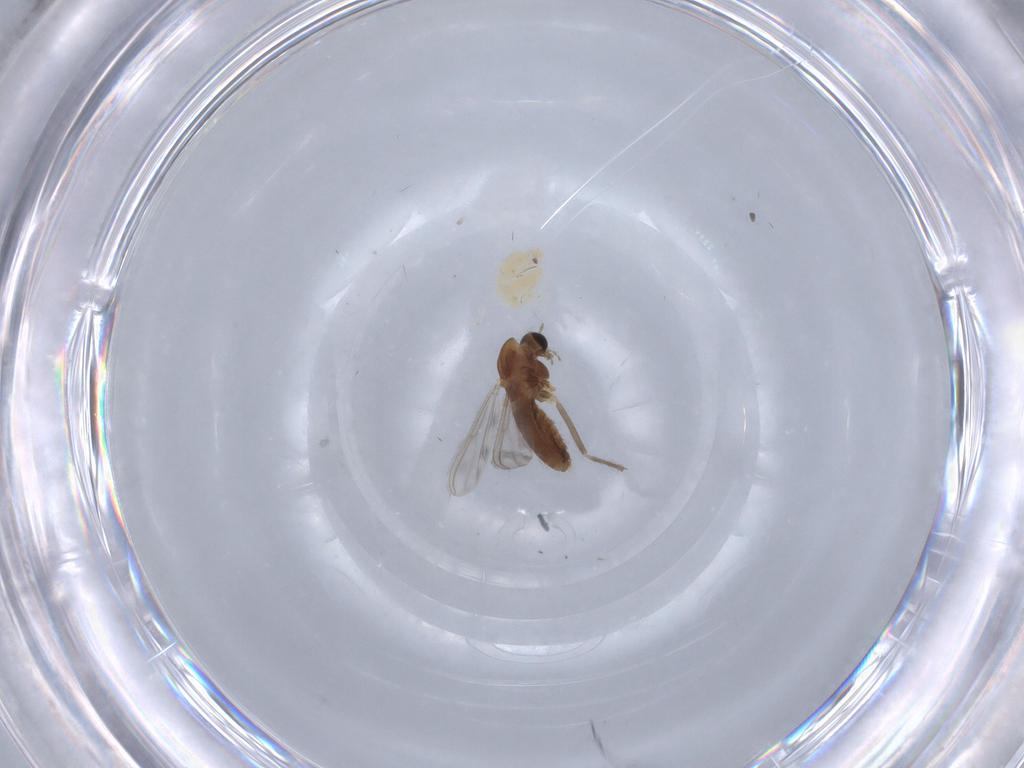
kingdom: Animalia
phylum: Arthropoda
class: Insecta
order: Diptera
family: Chironomidae
